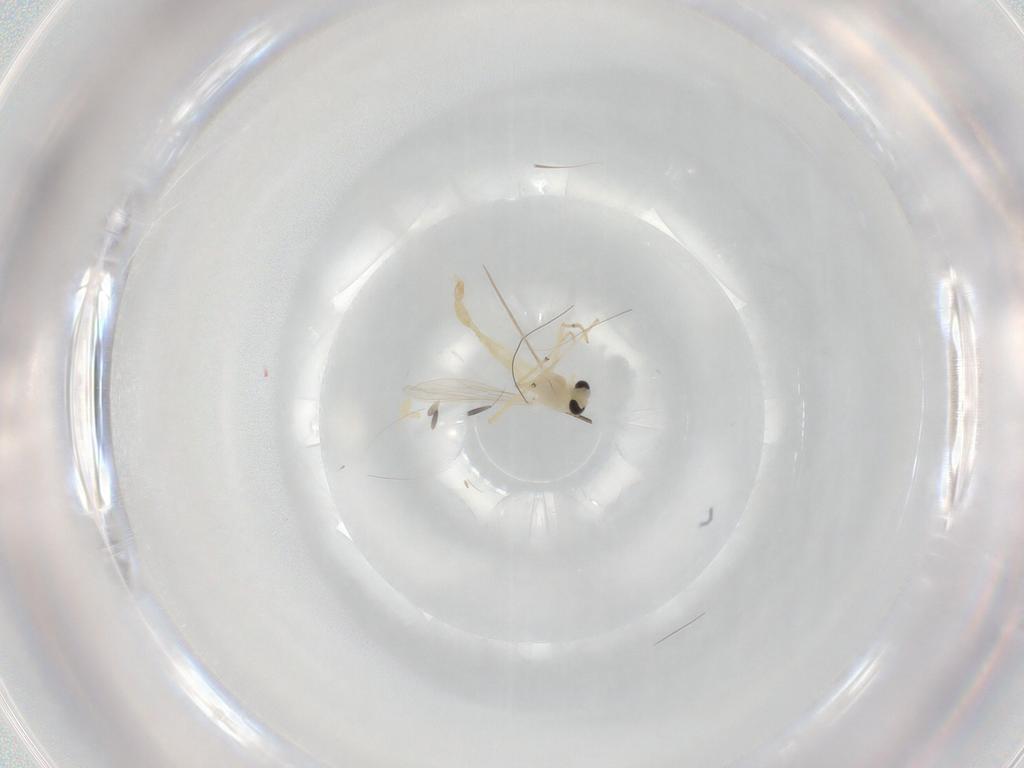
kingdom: Animalia
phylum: Arthropoda
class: Insecta
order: Diptera
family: Chironomidae
